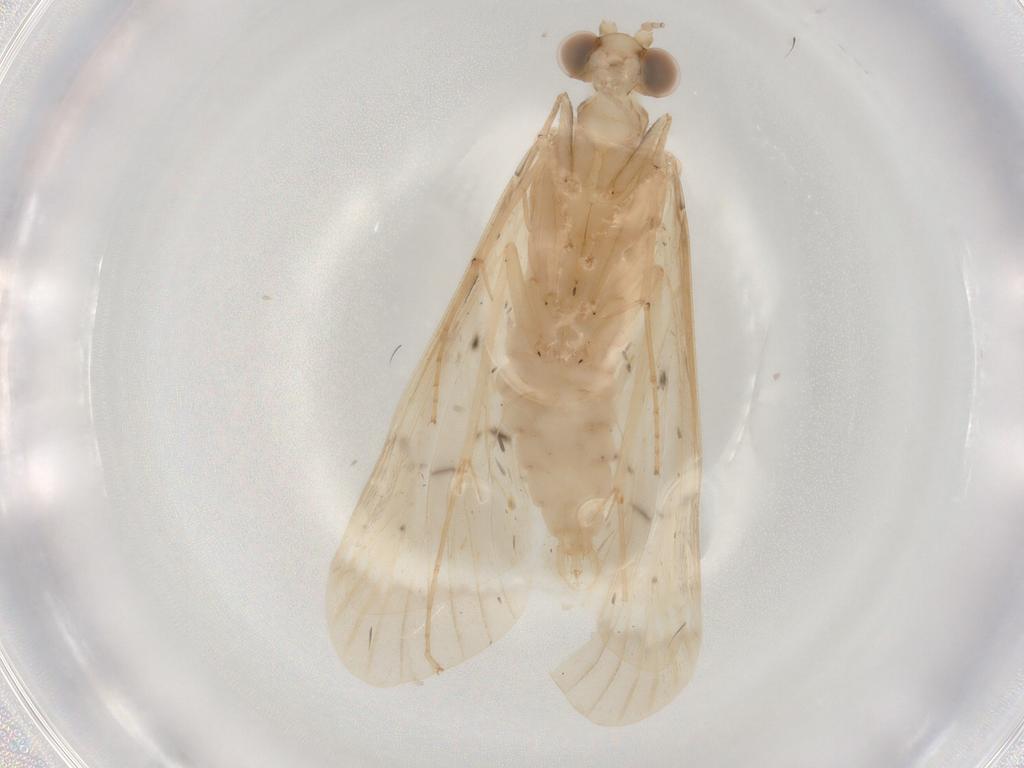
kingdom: Animalia
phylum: Arthropoda
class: Insecta
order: Trichoptera
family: Hydropsychidae
